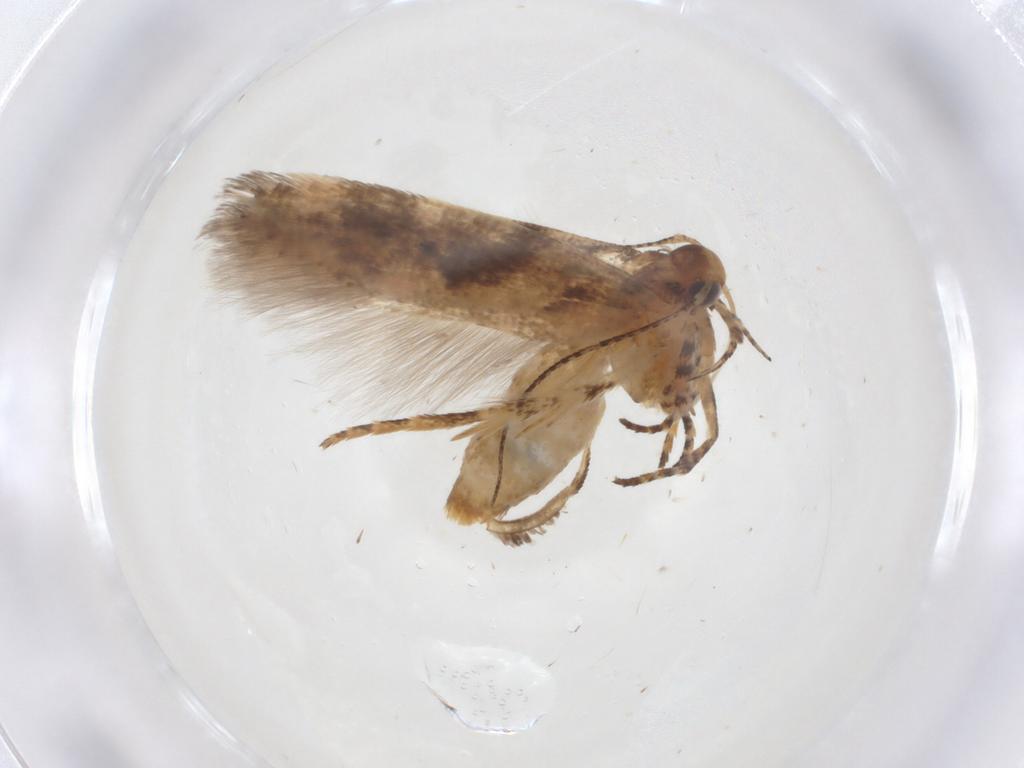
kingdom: Animalia
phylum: Arthropoda
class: Insecta
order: Lepidoptera
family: Gelechiidae
